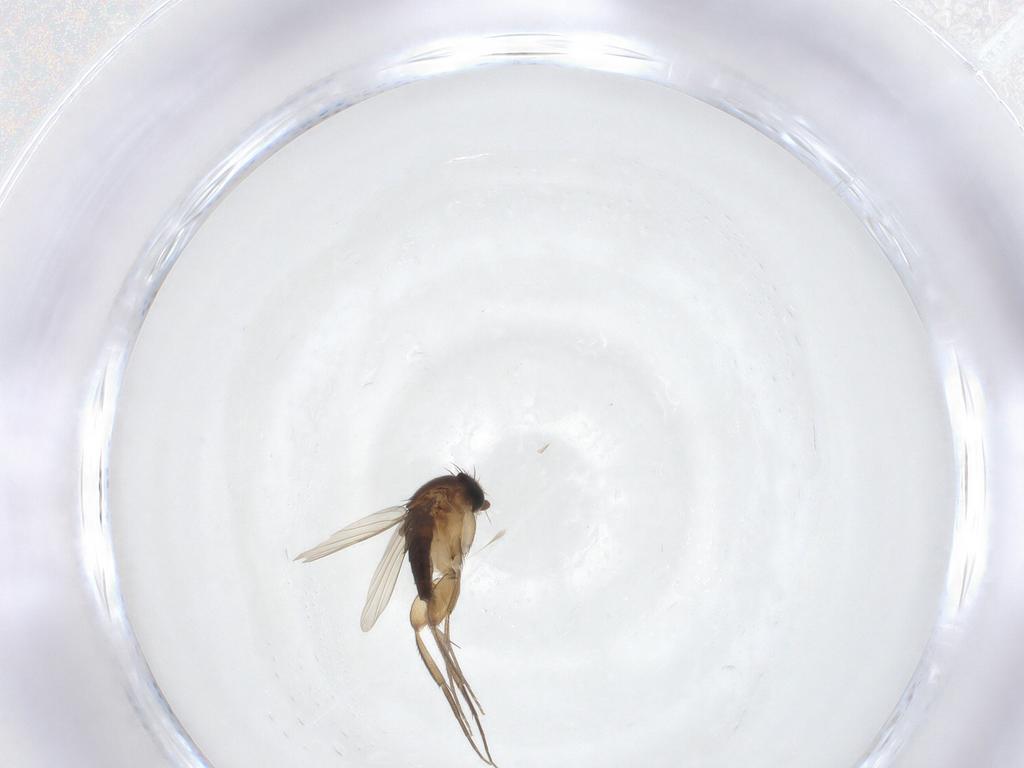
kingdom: Animalia
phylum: Arthropoda
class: Insecta
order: Diptera
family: Phoridae
